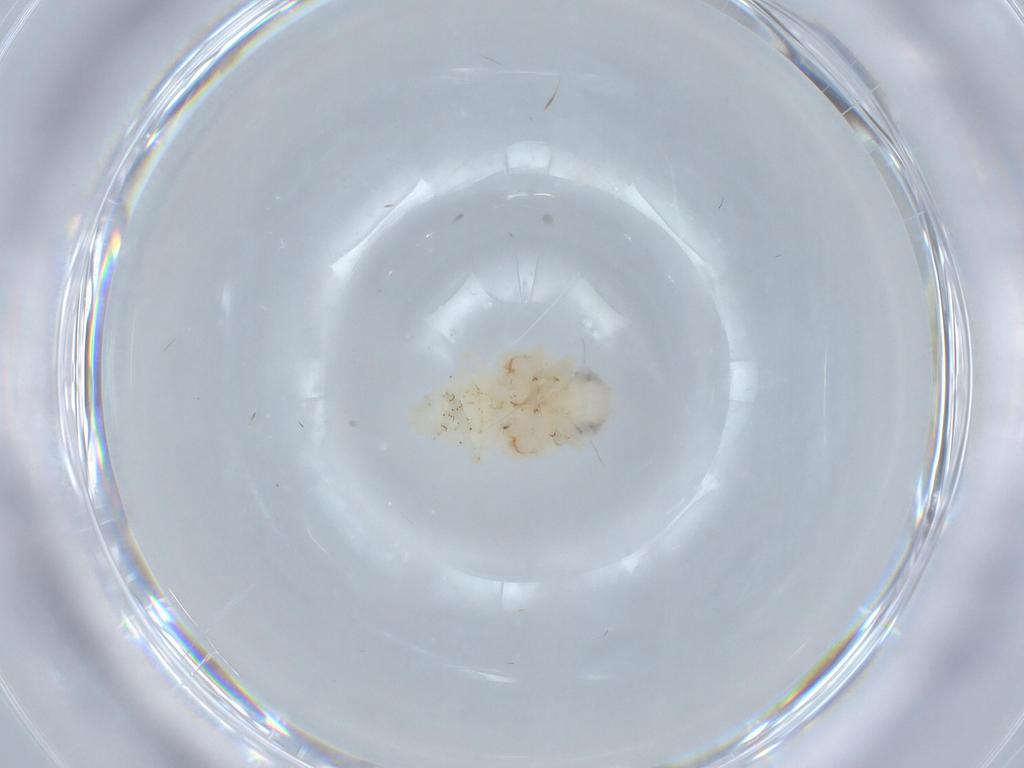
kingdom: Animalia
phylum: Arthropoda
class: Insecta
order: Hemiptera
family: Nogodinidae
